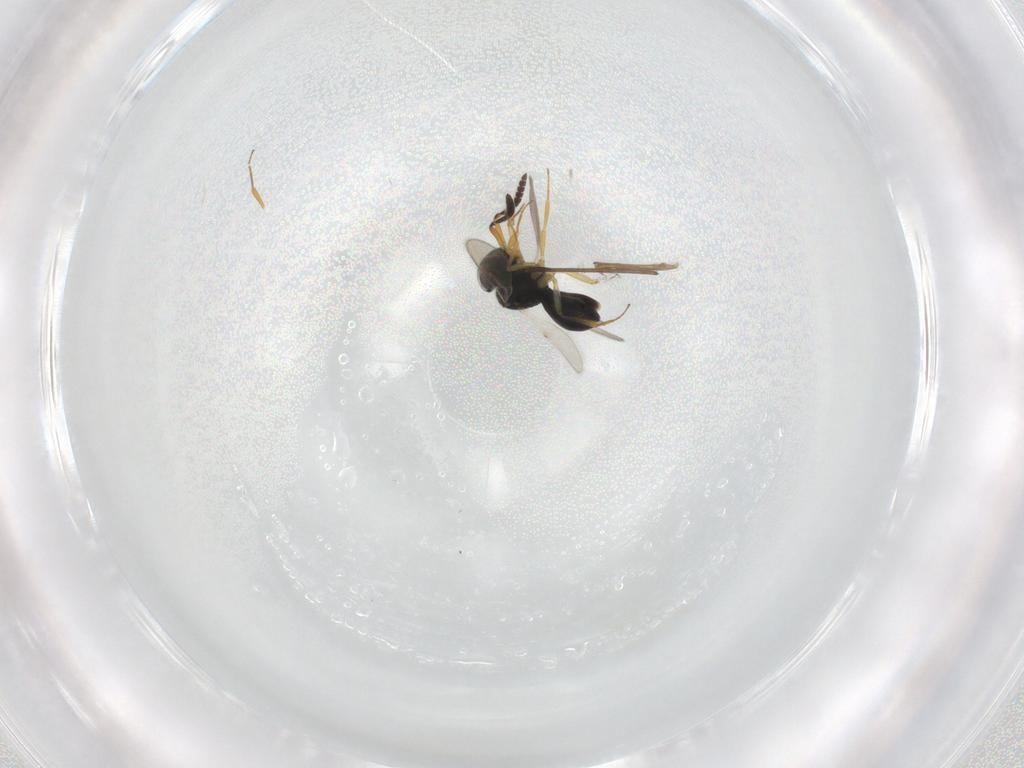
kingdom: Animalia
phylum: Arthropoda
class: Insecta
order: Hymenoptera
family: Scelionidae
